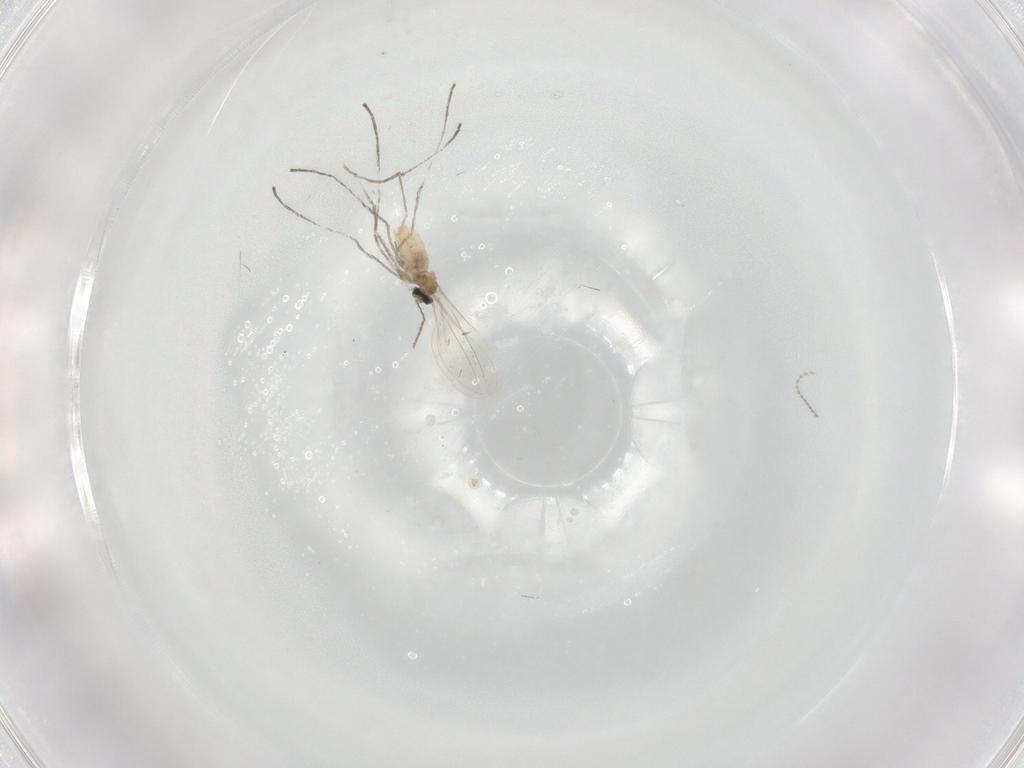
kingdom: Animalia
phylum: Arthropoda
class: Insecta
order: Diptera
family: Cecidomyiidae
